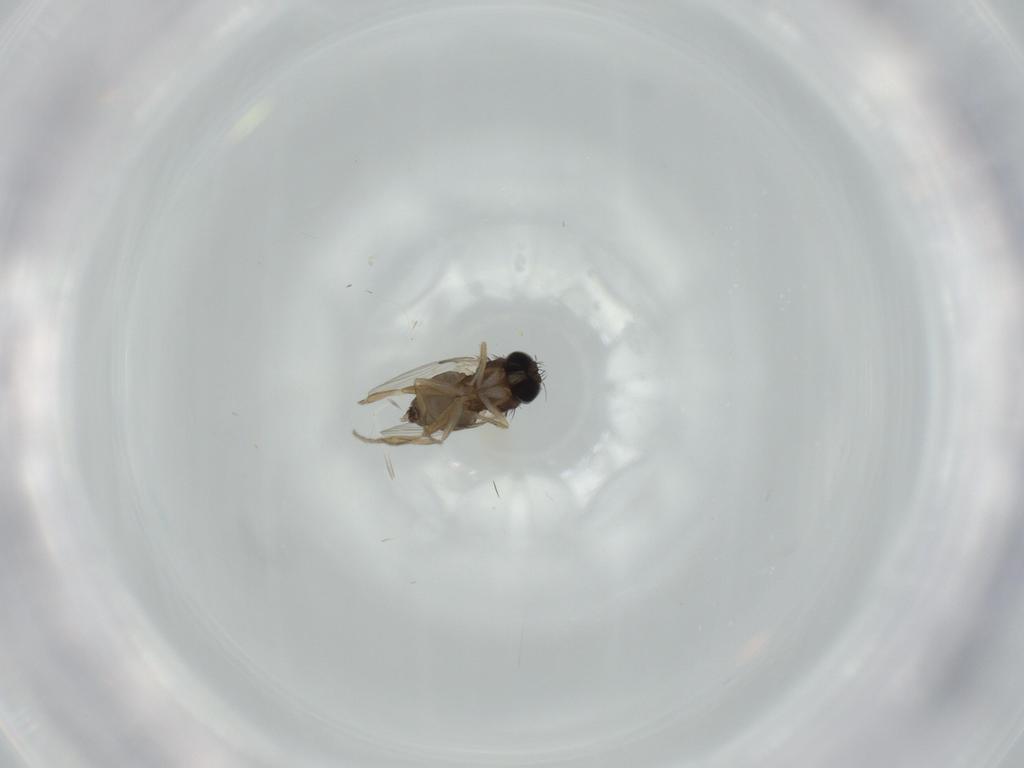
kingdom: Animalia
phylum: Arthropoda
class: Insecta
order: Diptera
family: Cecidomyiidae
